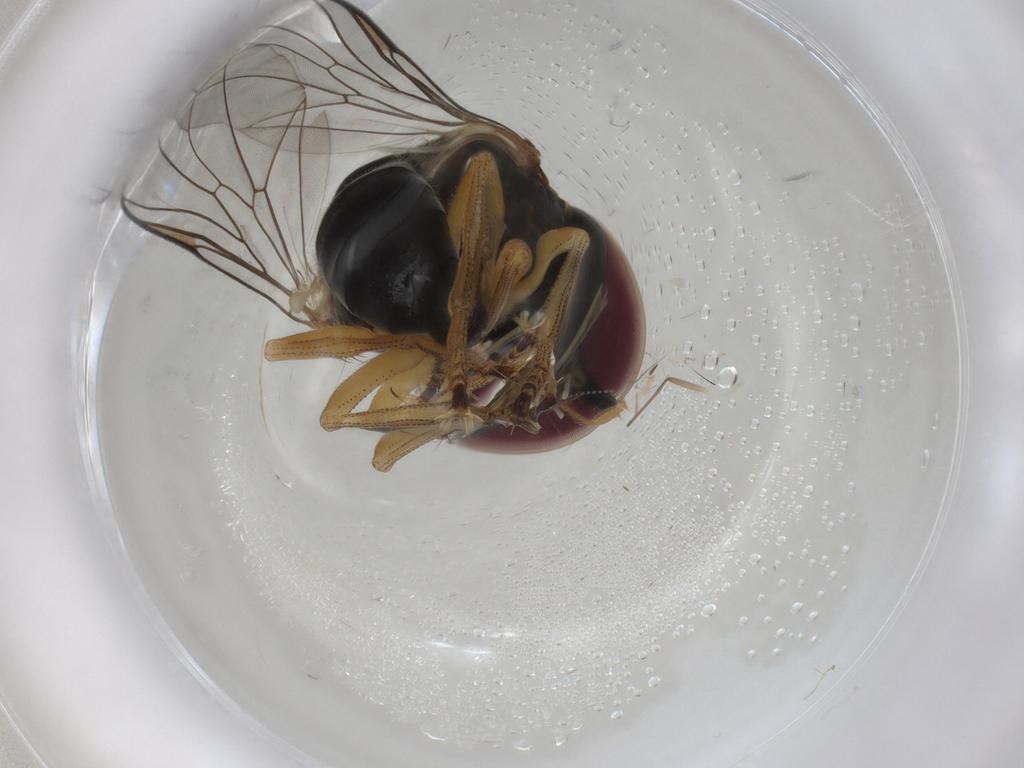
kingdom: Animalia
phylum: Arthropoda
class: Insecta
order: Diptera
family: Pipunculidae
